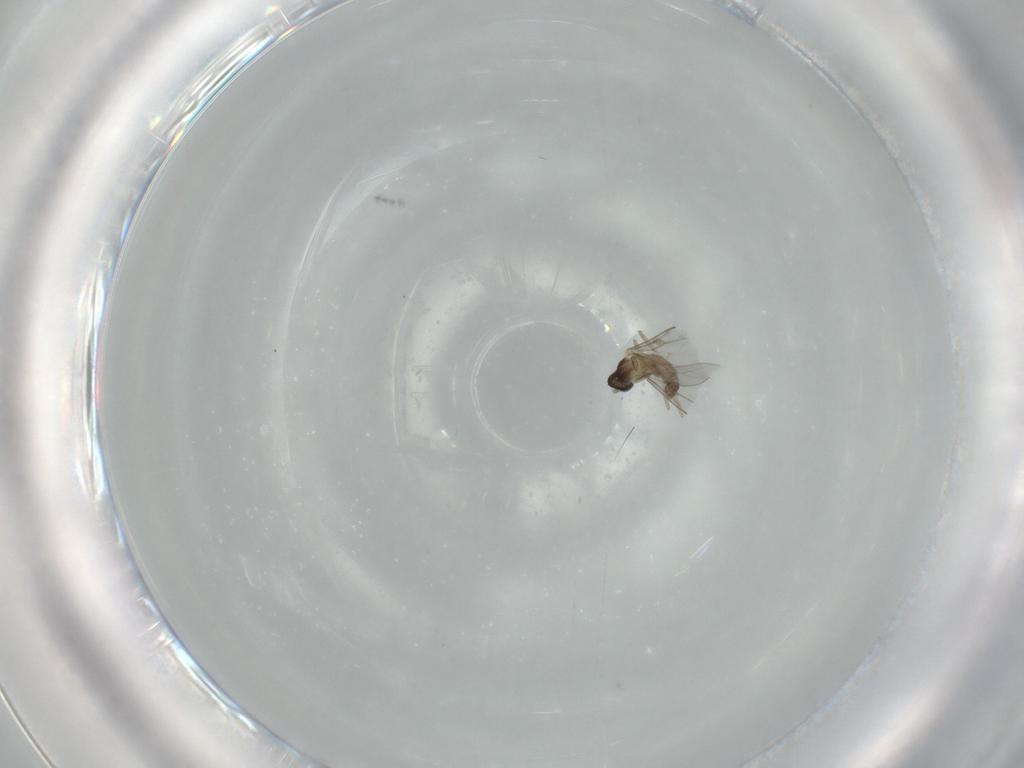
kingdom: Animalia
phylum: Arthropoda
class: Insecta
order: Diptera
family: Cecidomyiidae
